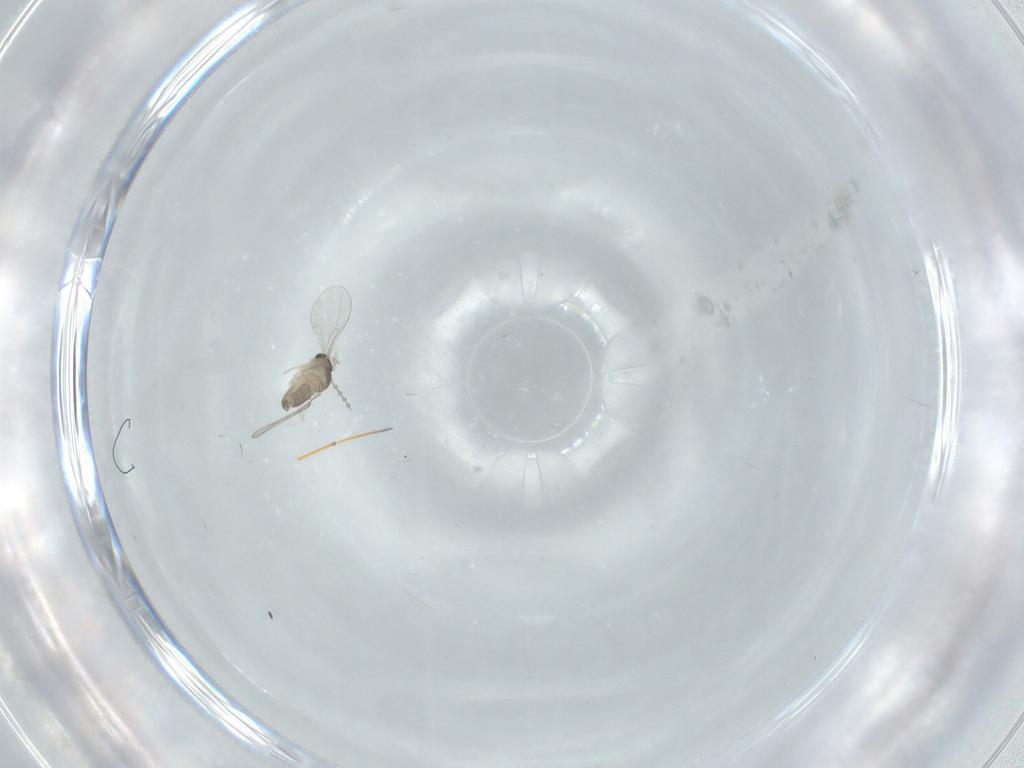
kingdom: Animalia
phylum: Arthropoda
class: Insecta
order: Diptera
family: Cecidomyiidae
